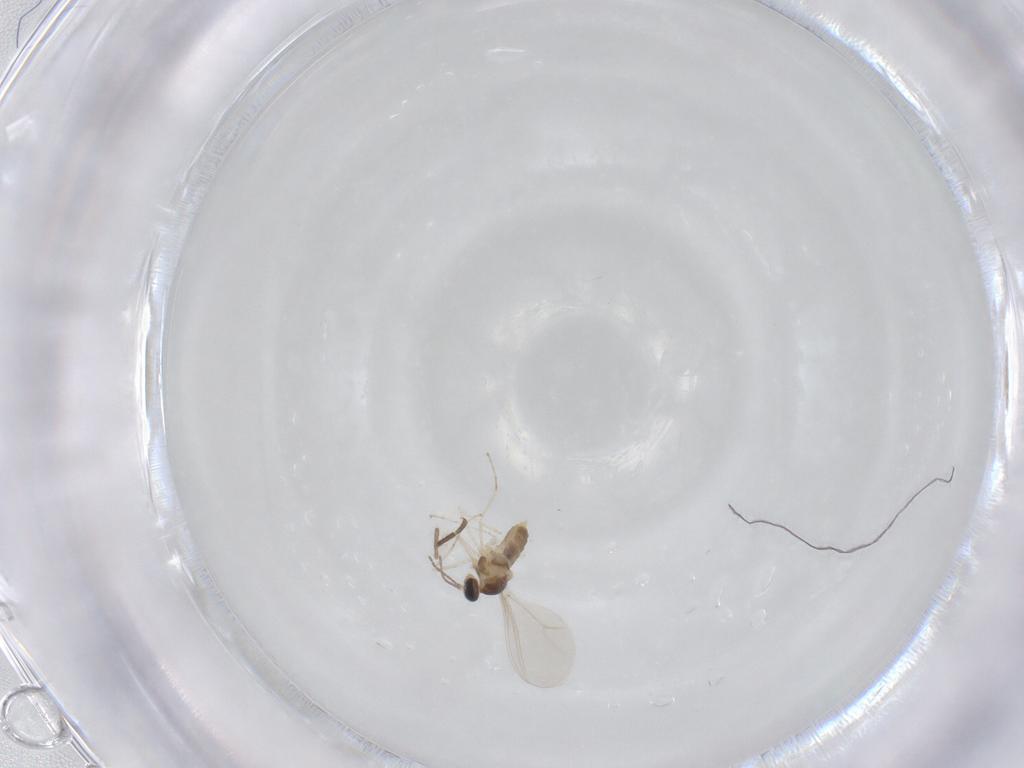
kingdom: Animalia
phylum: Arthropoda
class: Insecta
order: Diptera
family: Cecidomyiidae
